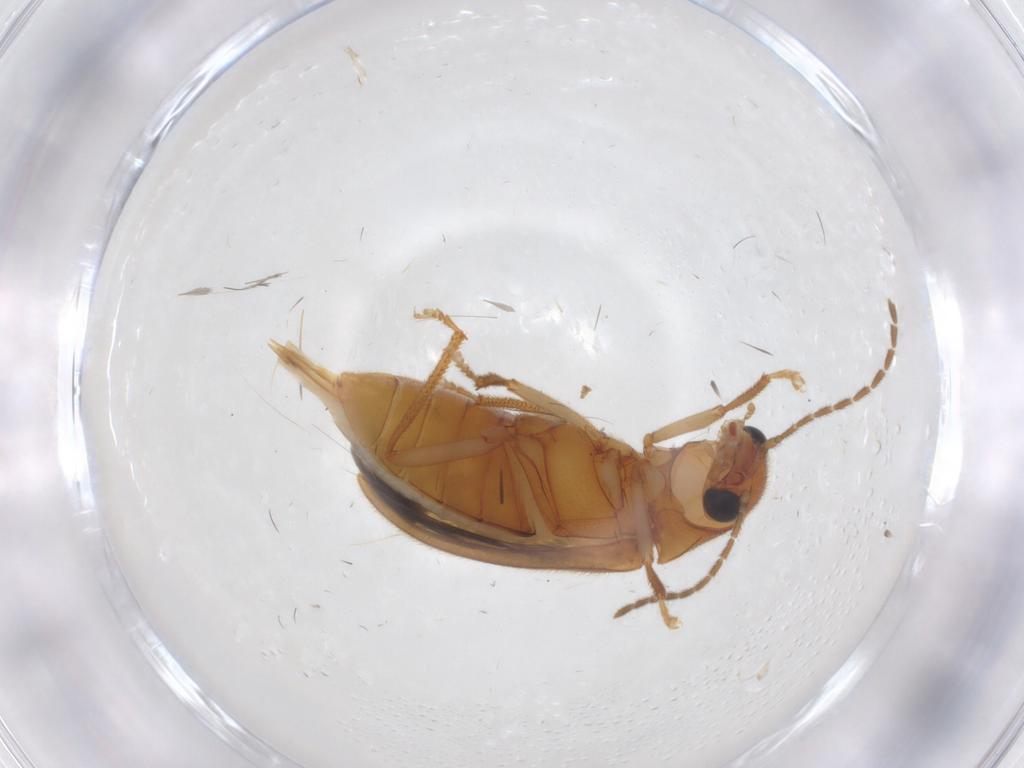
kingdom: Animalia
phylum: Arthropoda
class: Insecta
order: Coleoptera
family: Ptilodactylidae
